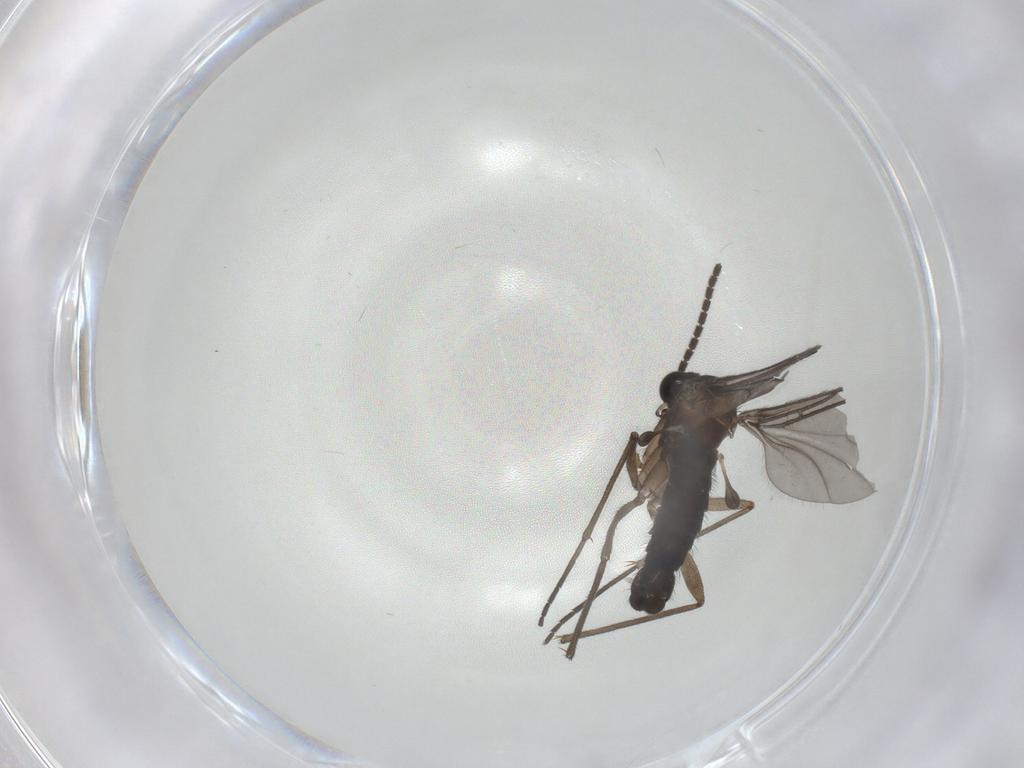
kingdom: Animalia
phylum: Arthropoda
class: Insecta
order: Diptera
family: Sciaridae
